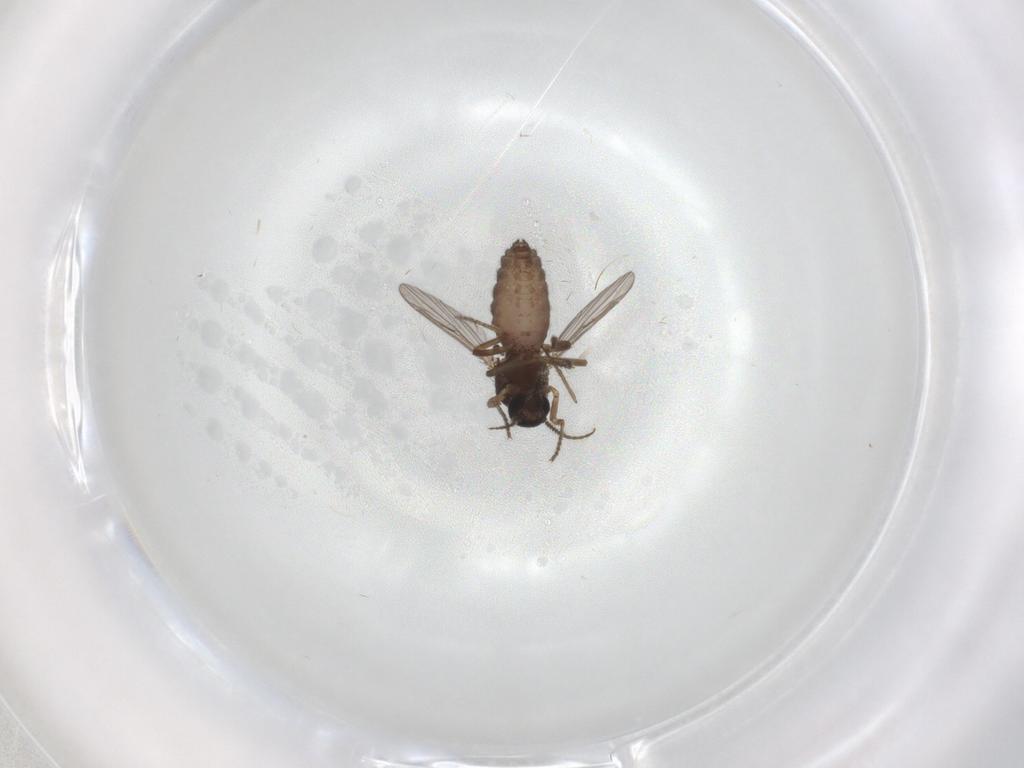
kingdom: Animalia
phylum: Arthropoda
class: Insecta
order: Diptera
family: Ceratopogonidae
